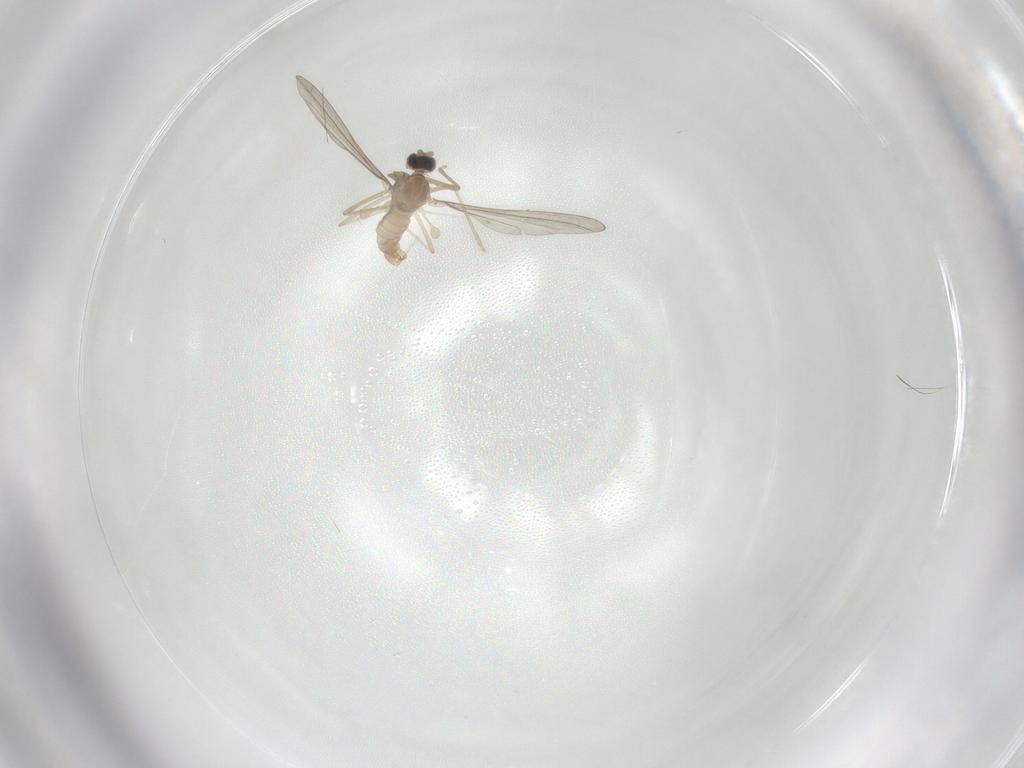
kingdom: Animalia
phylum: Arthropoda
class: Insecta
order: Diptera
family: Cecidomyiidae
